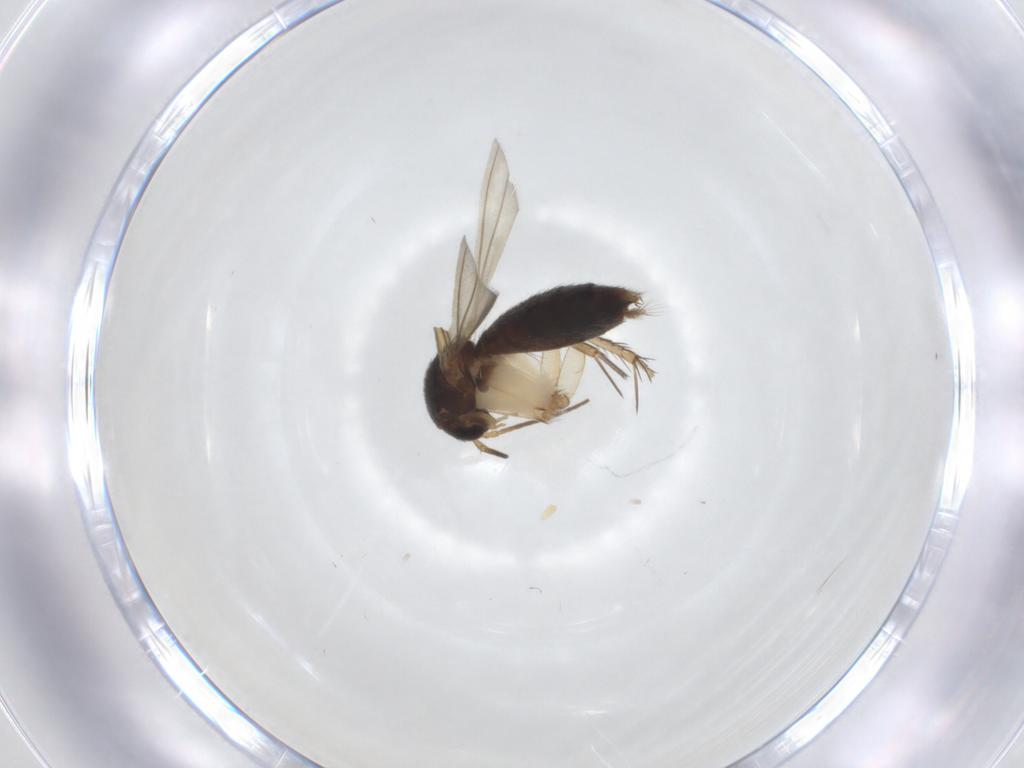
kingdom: Animalia
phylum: Arthropoda
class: Insecta
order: Diptera
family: Mycetophilidae
